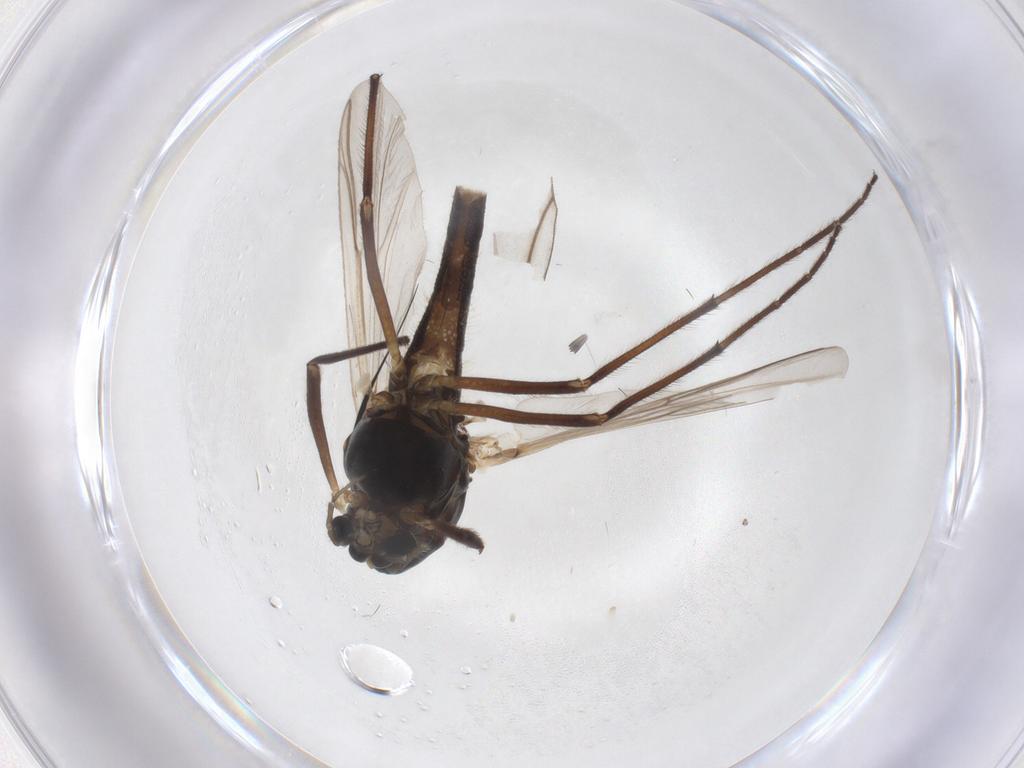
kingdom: Animalia
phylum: Arthropoda
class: Insecta
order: Diptera
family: Chironomidae
